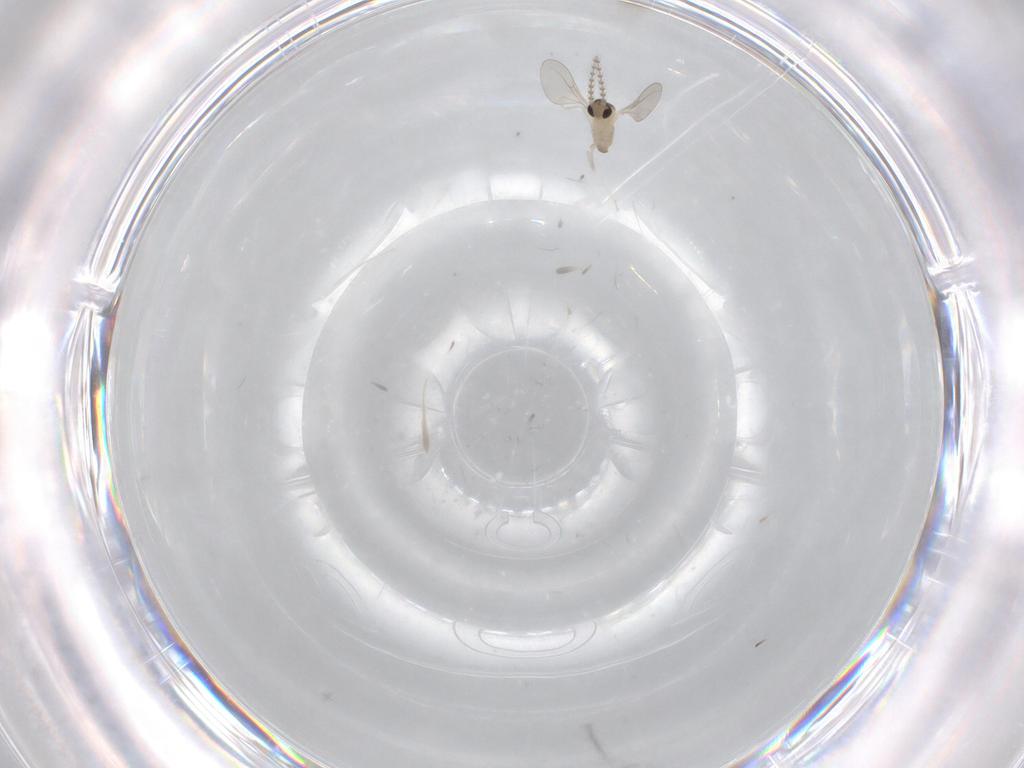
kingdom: Animalia
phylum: Arthropoda
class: Insecta
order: Diptera
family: Cecidomyiidae
